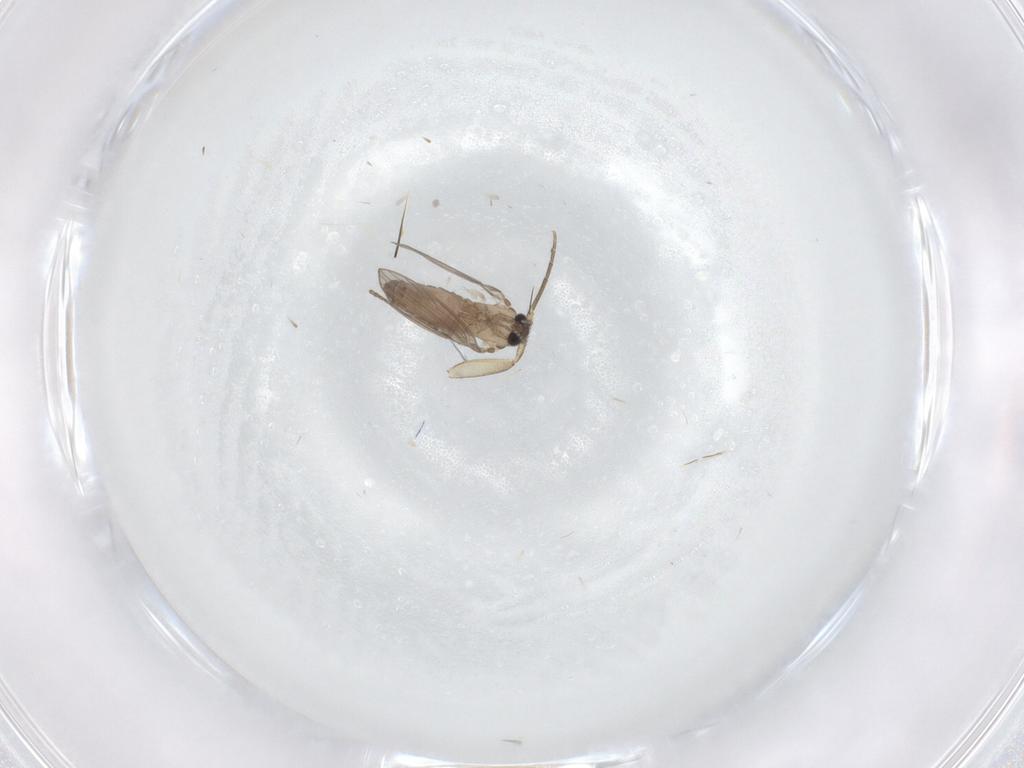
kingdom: Animalia
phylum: Arthropoda
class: Insecta
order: Diptera
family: Psychodidae
